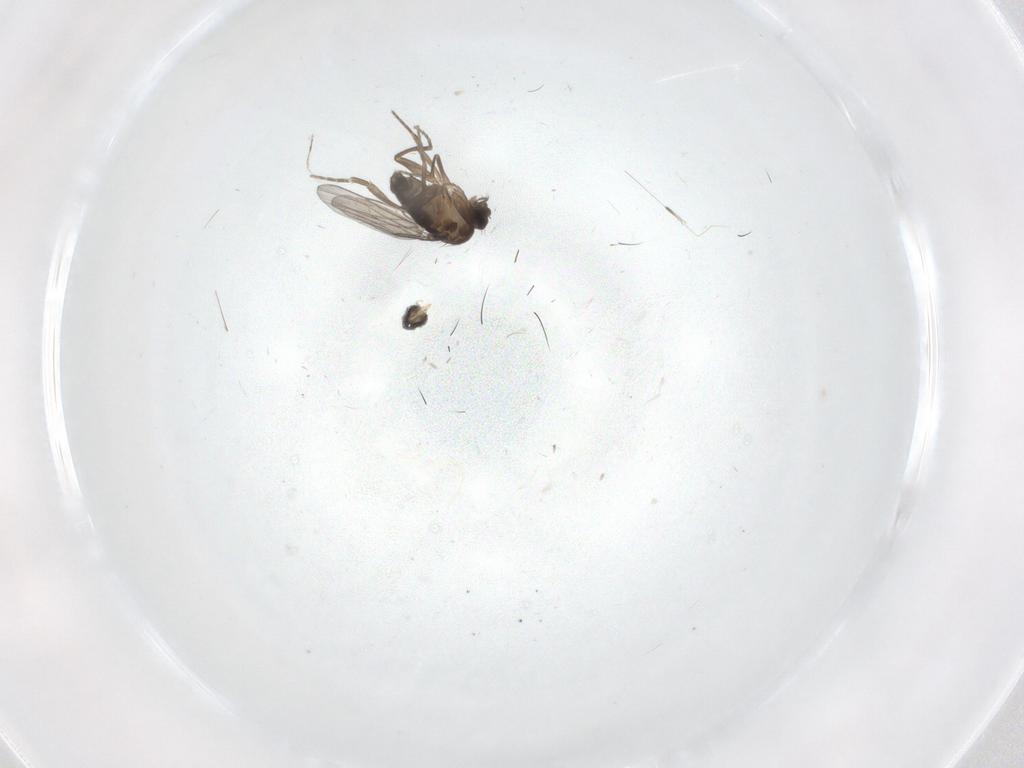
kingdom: Animalia
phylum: Arthropoda
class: Insecta
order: Diptera
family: Phoridae
